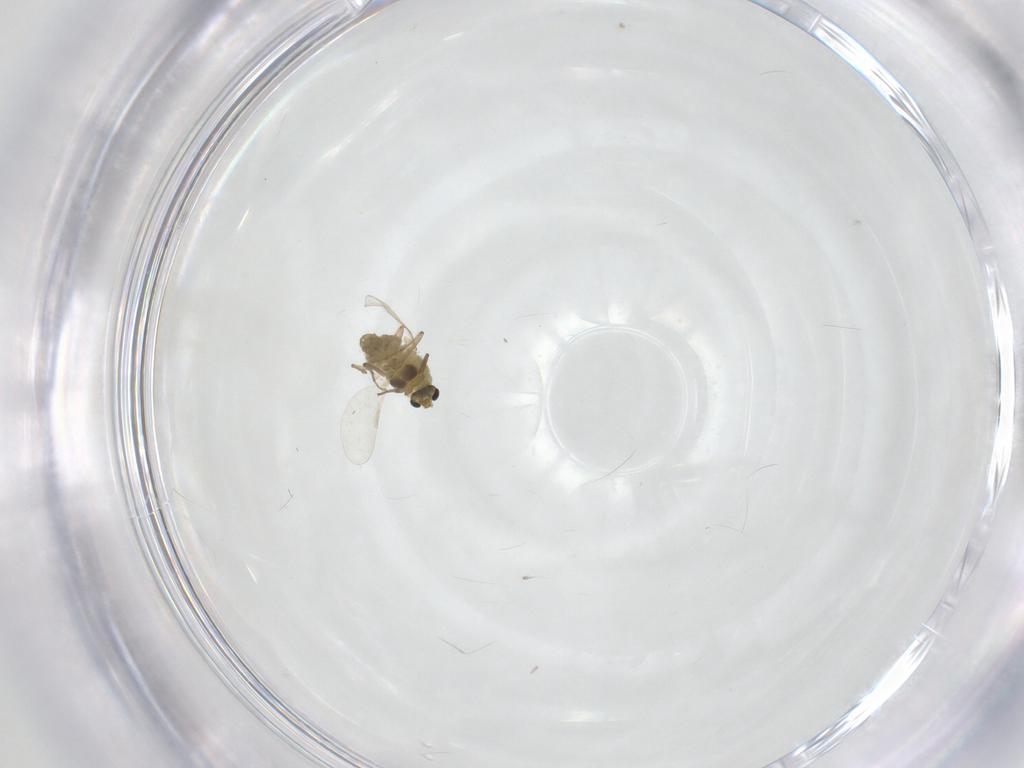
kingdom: Animalia
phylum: Arthropoda
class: Insecta
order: Diptera
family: Chironomidae
